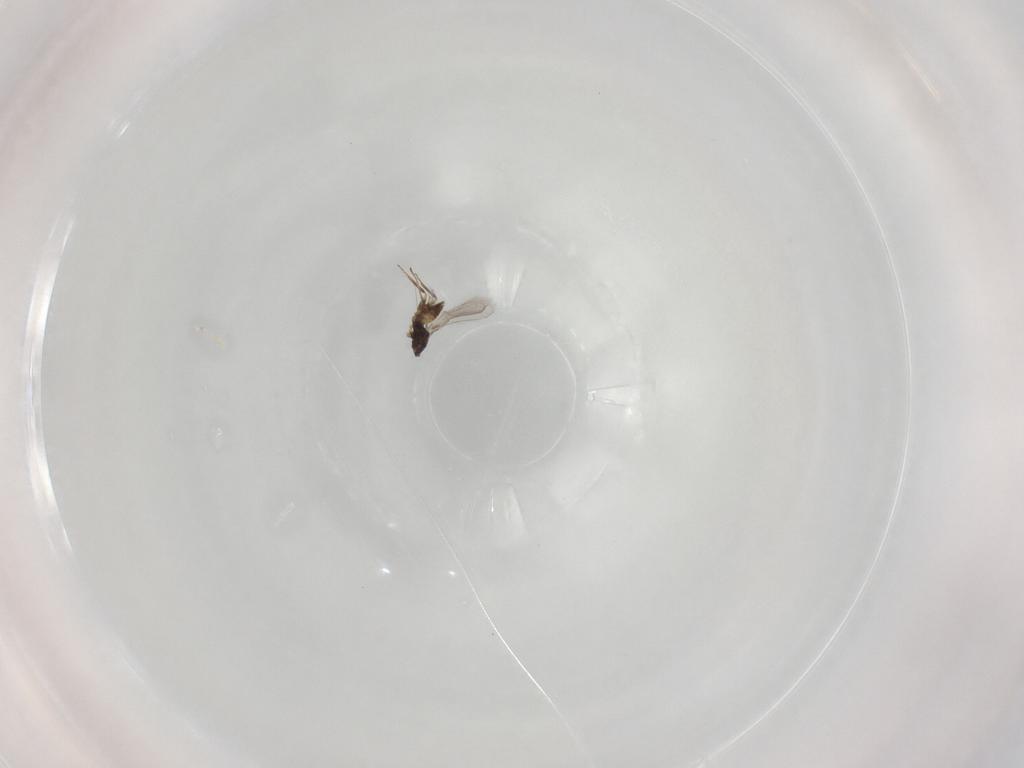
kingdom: Animalia
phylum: Arthropoda
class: Insecta
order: Hymenoptera
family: Mymaridae
